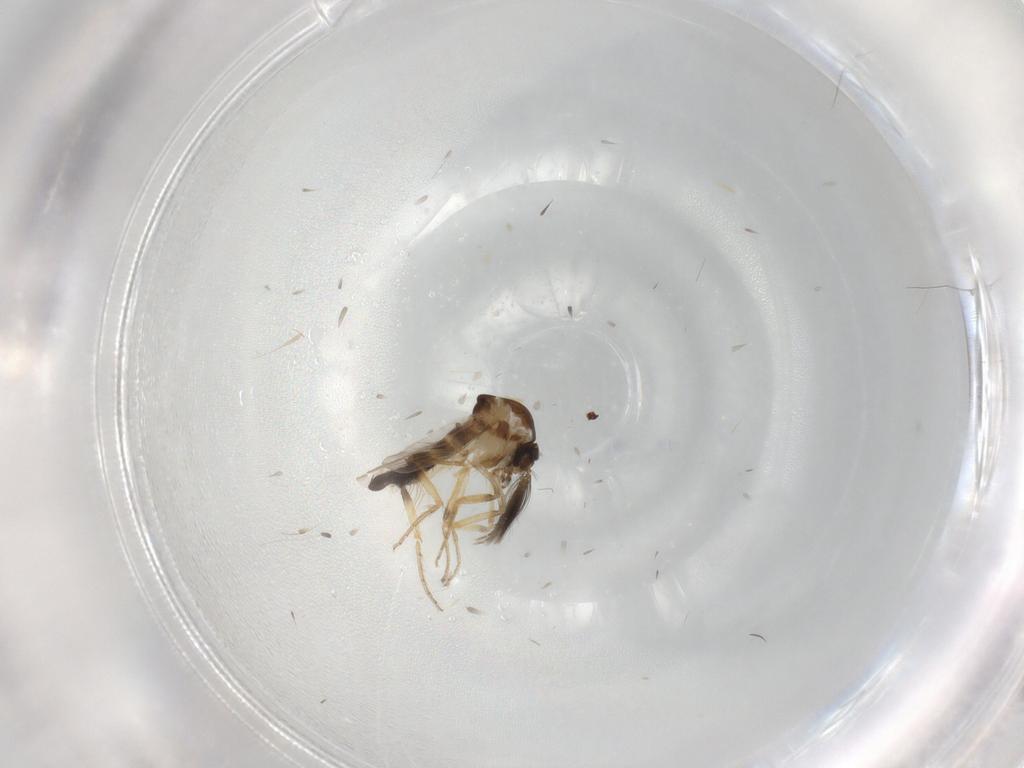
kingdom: Animalia
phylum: Arthropoda
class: Insecta
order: Diptera
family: Ceratopogonidae
